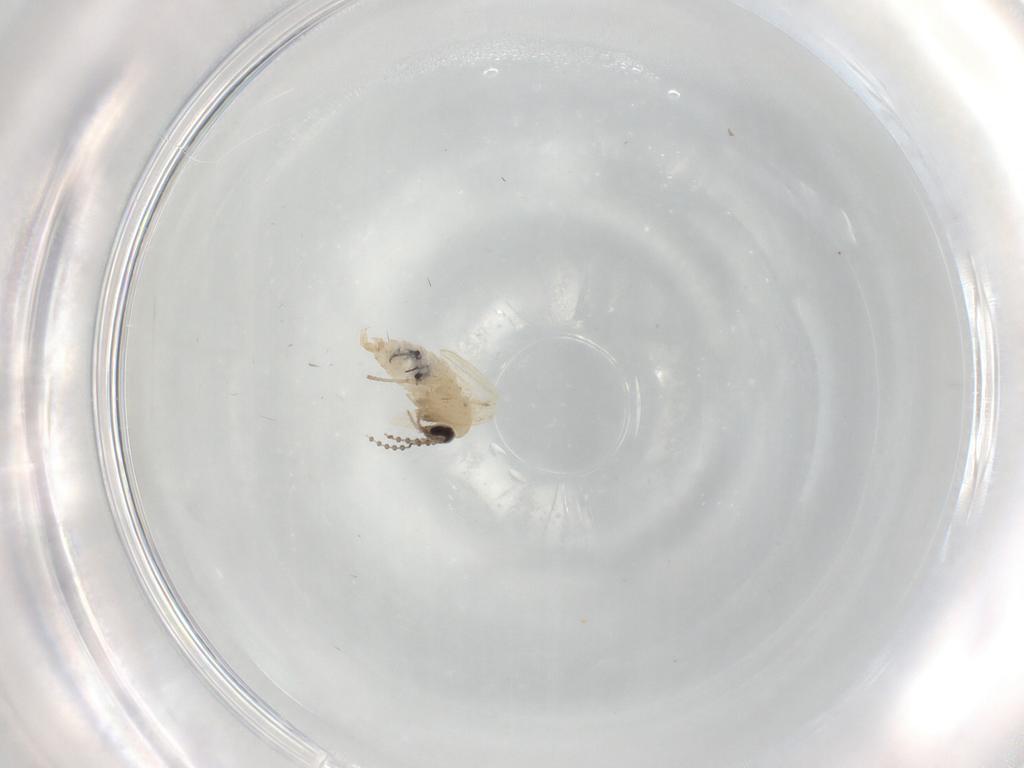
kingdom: Animalia
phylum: Arthropoda
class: Insecta
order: Diptera
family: Psychodidae
